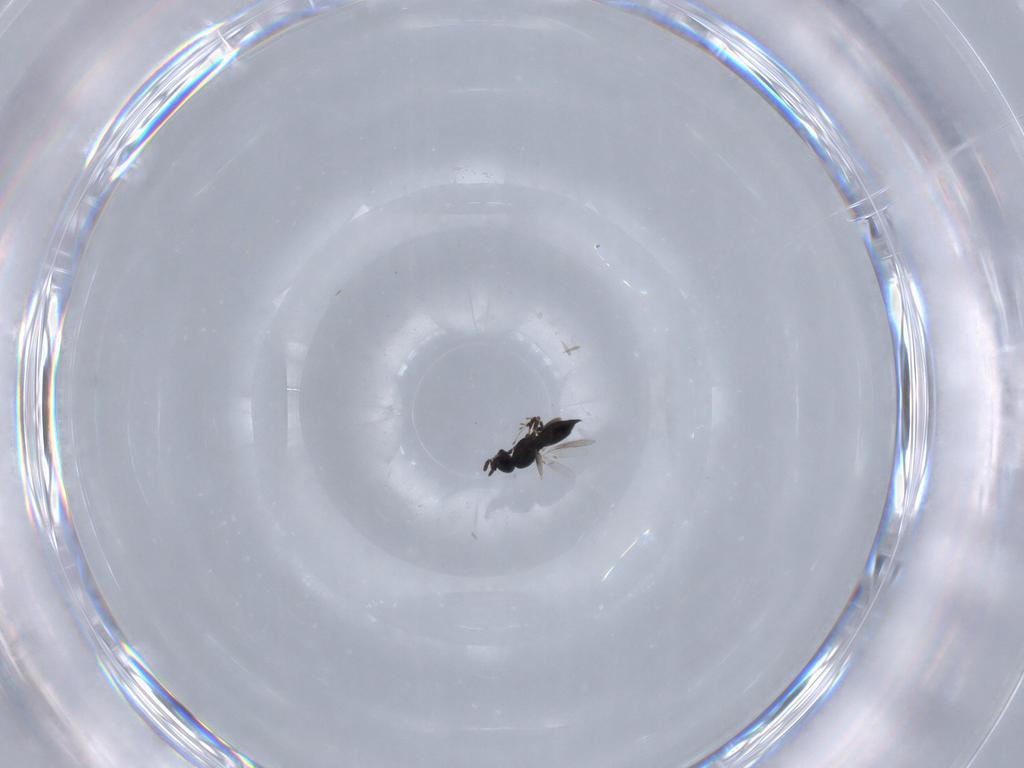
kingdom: Animalia
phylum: Arthropoda
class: Insecta
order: Hymenoptera
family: Scelionidae
